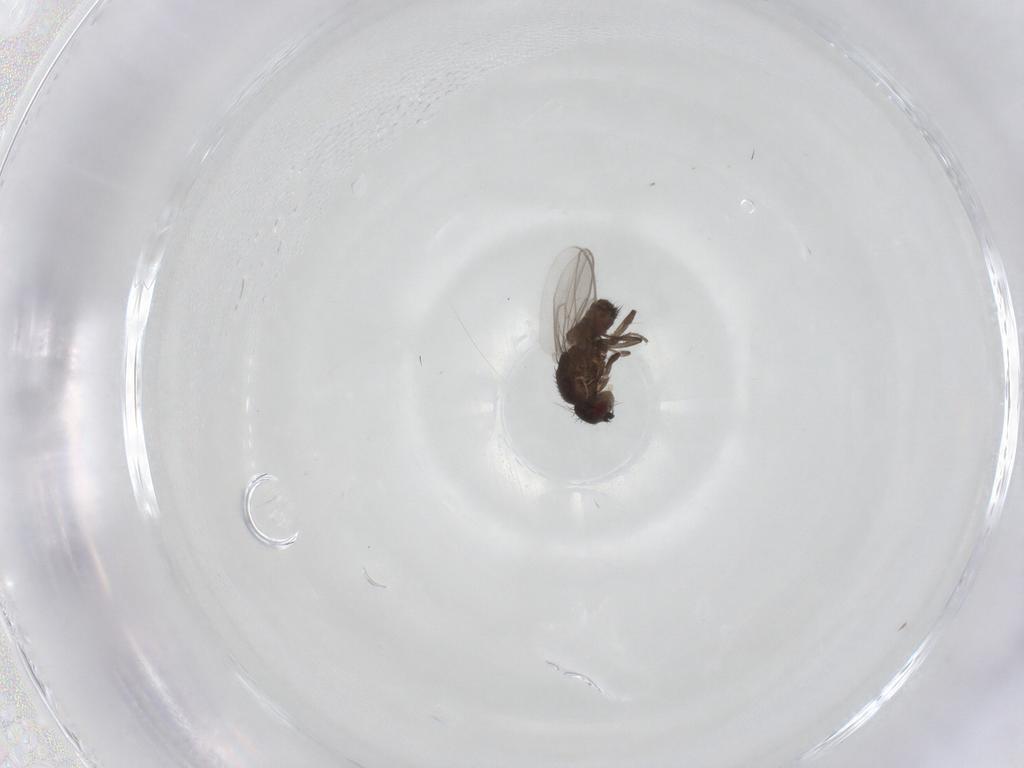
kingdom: Animalia
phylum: Arthropoda
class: Insecta
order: Diptera
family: Sphaeroceridae
